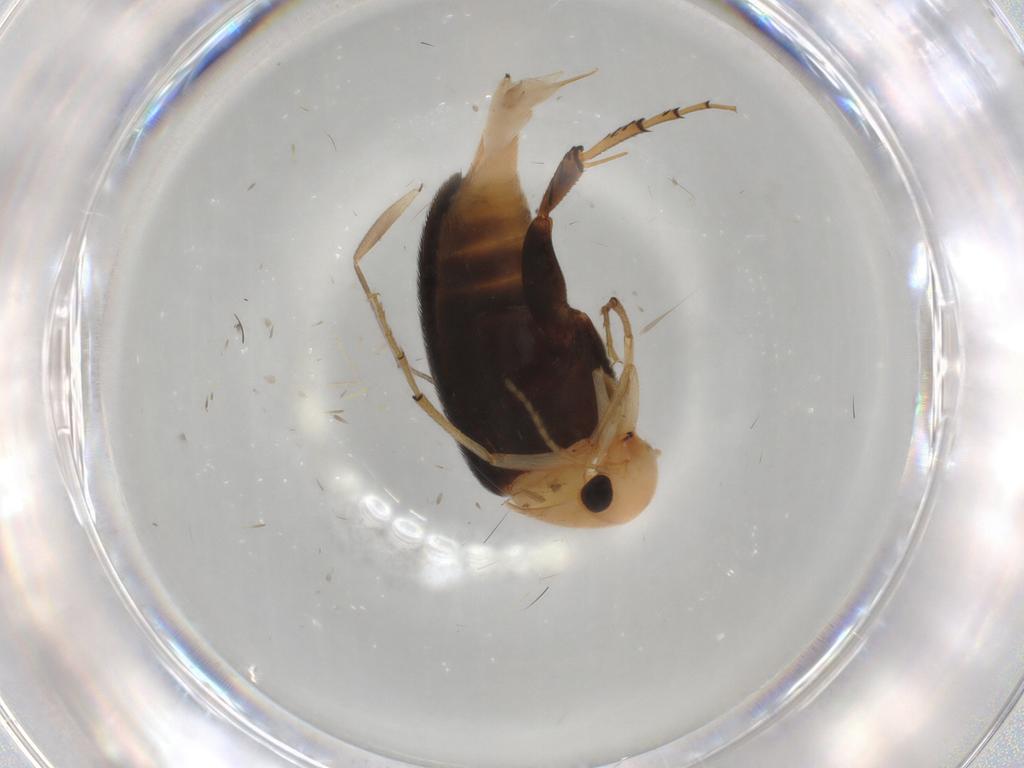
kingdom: Animalia
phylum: Arthropoda
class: Insecta
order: Coleoptera
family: Mordellidae
